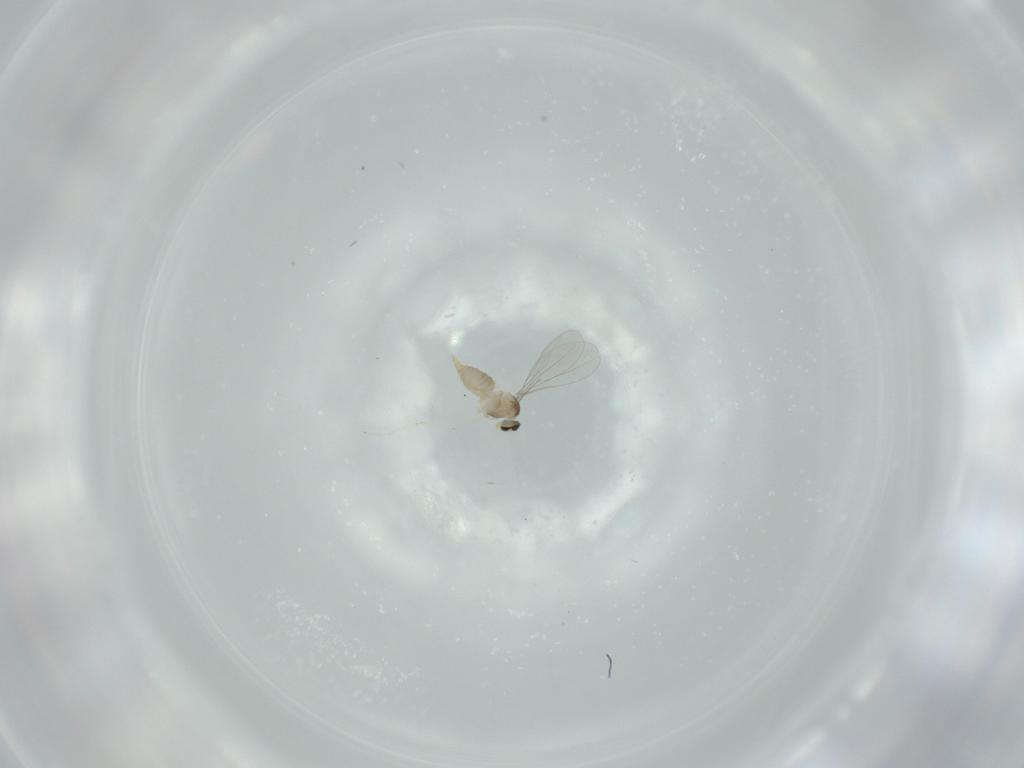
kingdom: Animalia
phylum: Arthropoda
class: Insecta
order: Diptera
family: Cecidomyiidae
